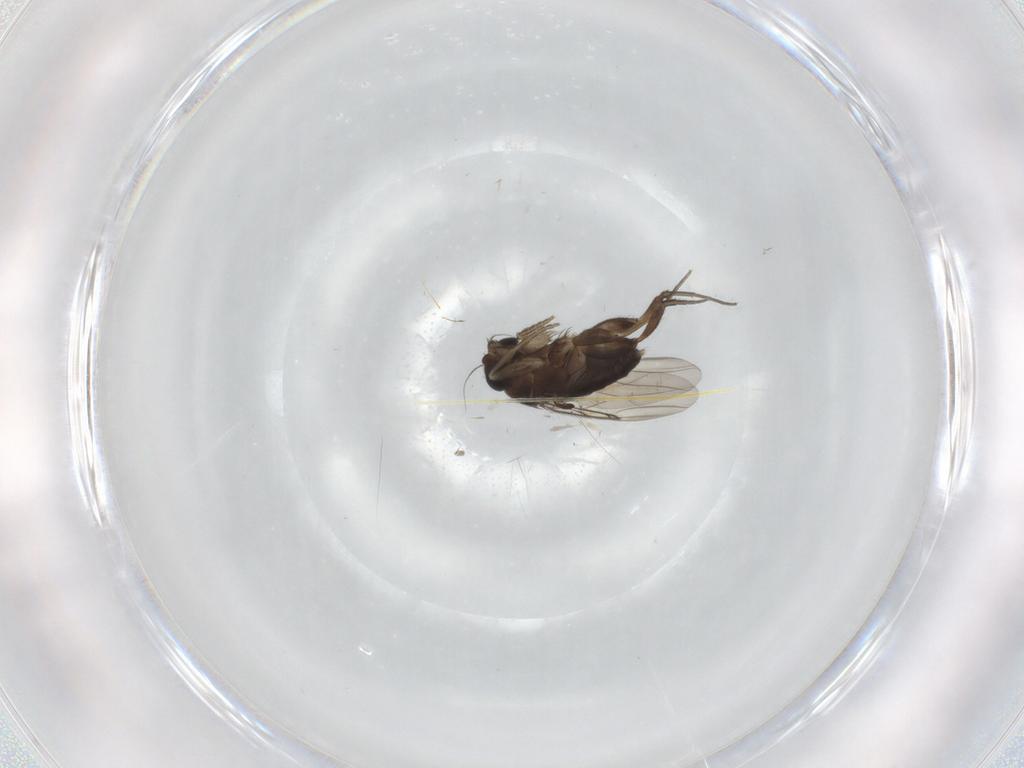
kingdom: Animalia
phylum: Arthropoda
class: Insecta
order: Diptera
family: Phoridae
